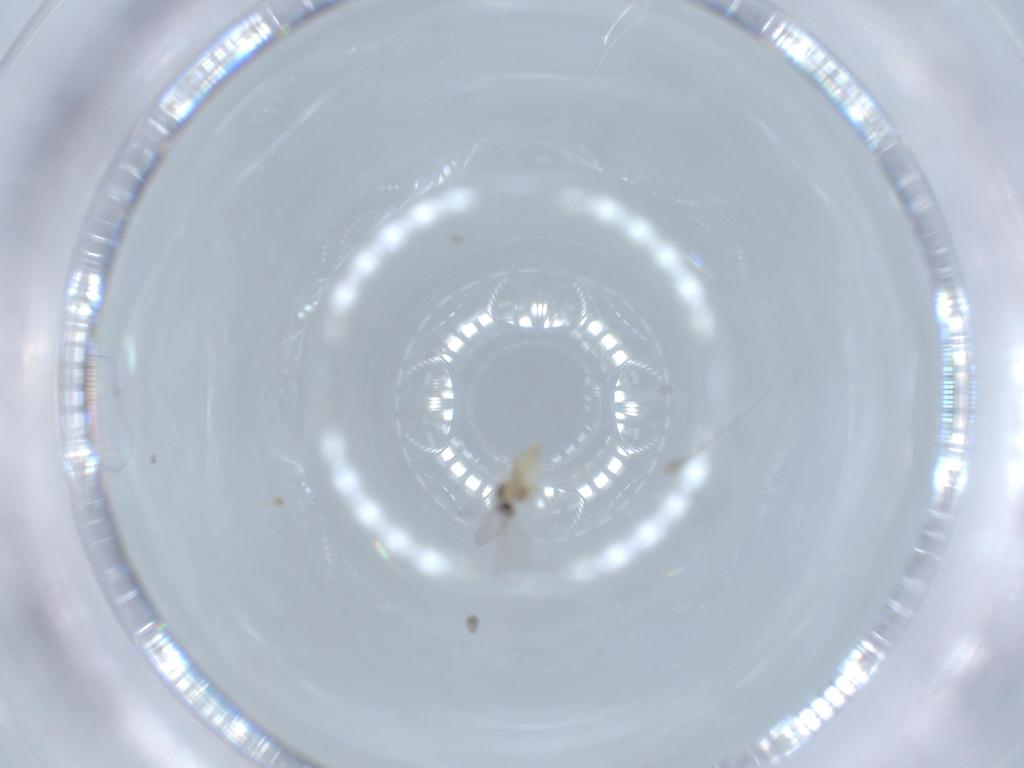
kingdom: Animalia
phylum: Arthropoda
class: Insecta
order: Diptera
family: Cecidomyiidae
